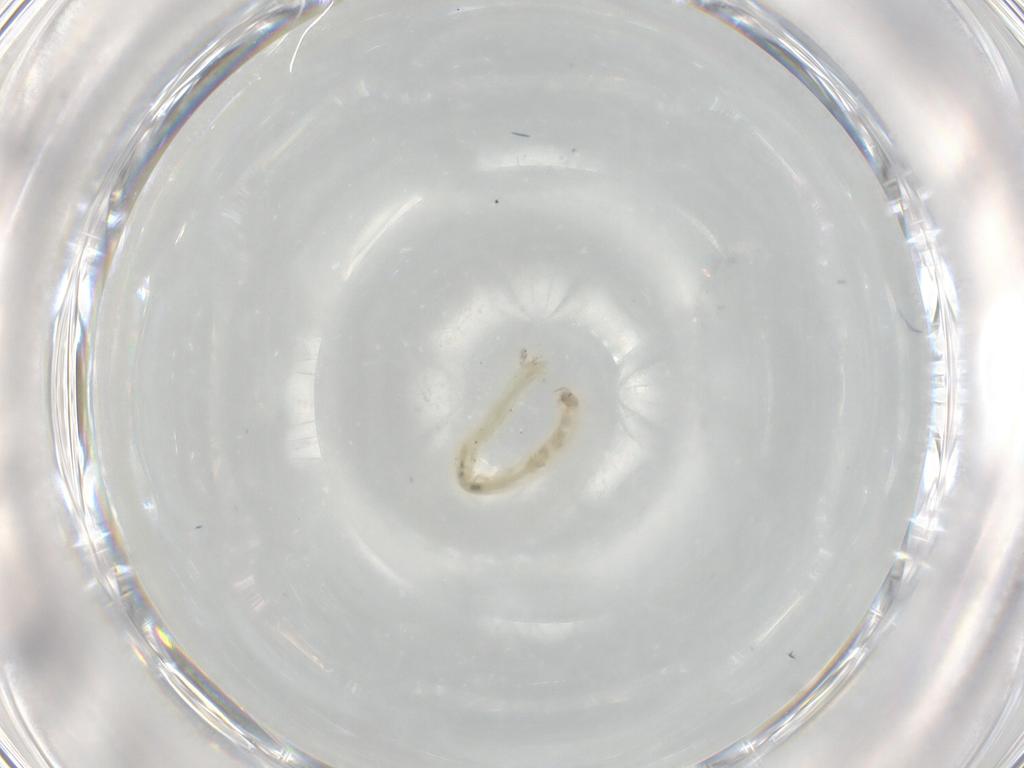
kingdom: Animalia
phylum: Arthropoda
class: Insecta
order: Diptera
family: Chironomidae
